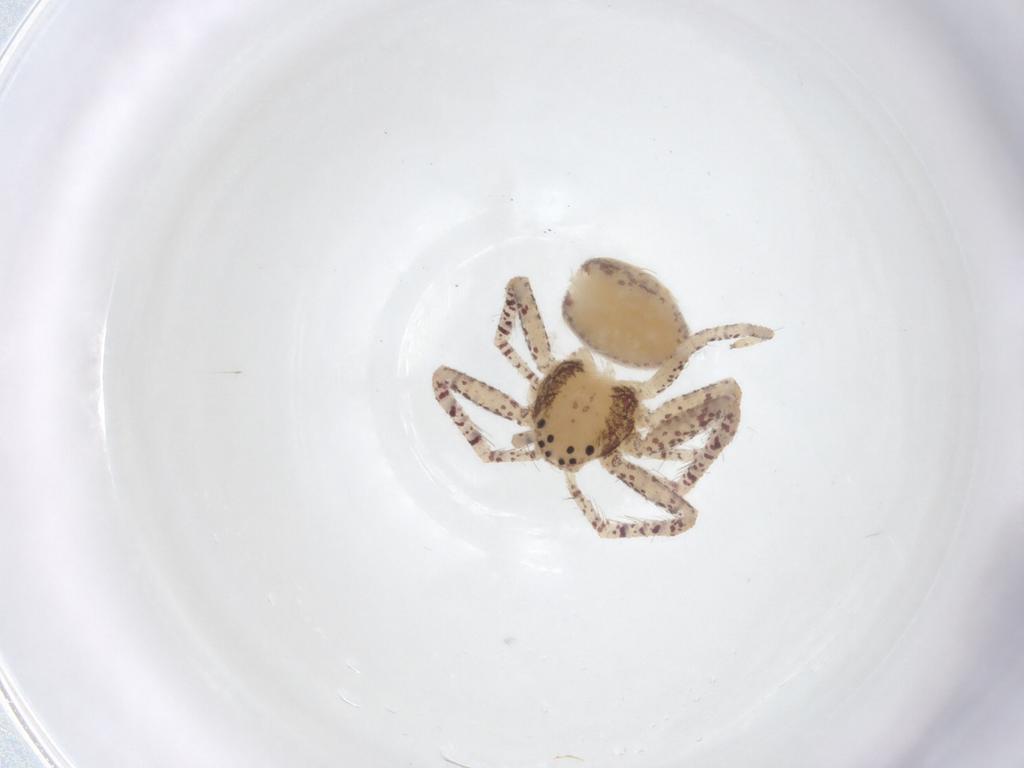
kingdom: Animalia
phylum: Arthropoda
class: Arachnida
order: Araneae
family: Philodromidae
